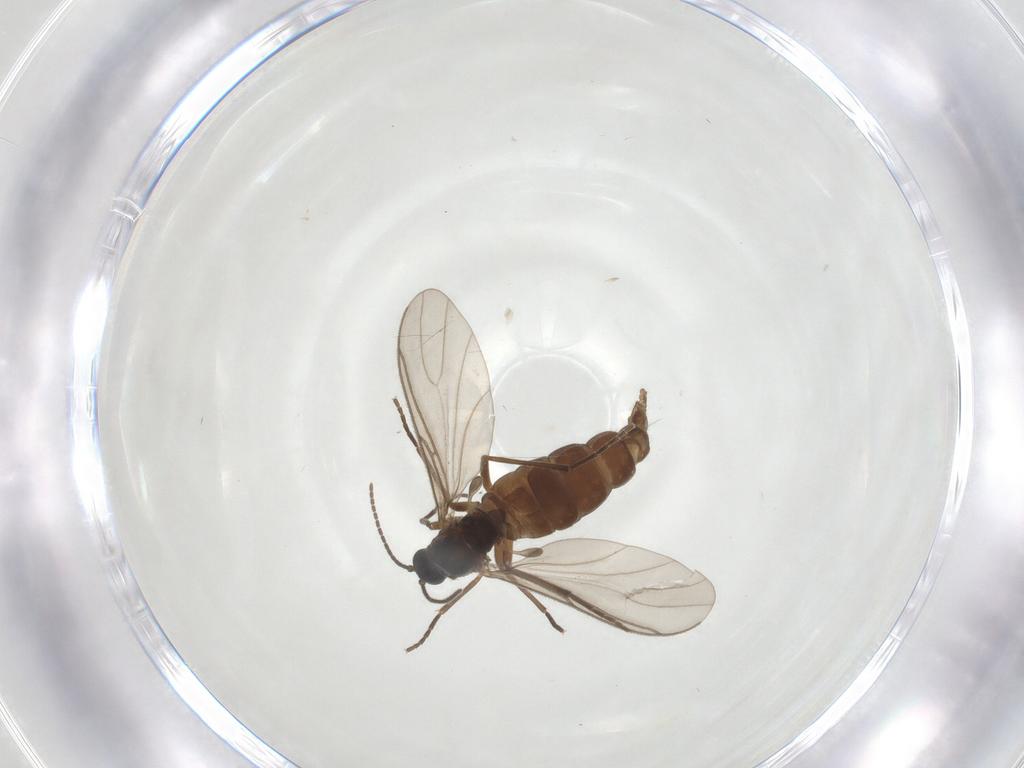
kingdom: Animalia
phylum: Arthropoda
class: Insecta
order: Diptera
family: Sciaridae
